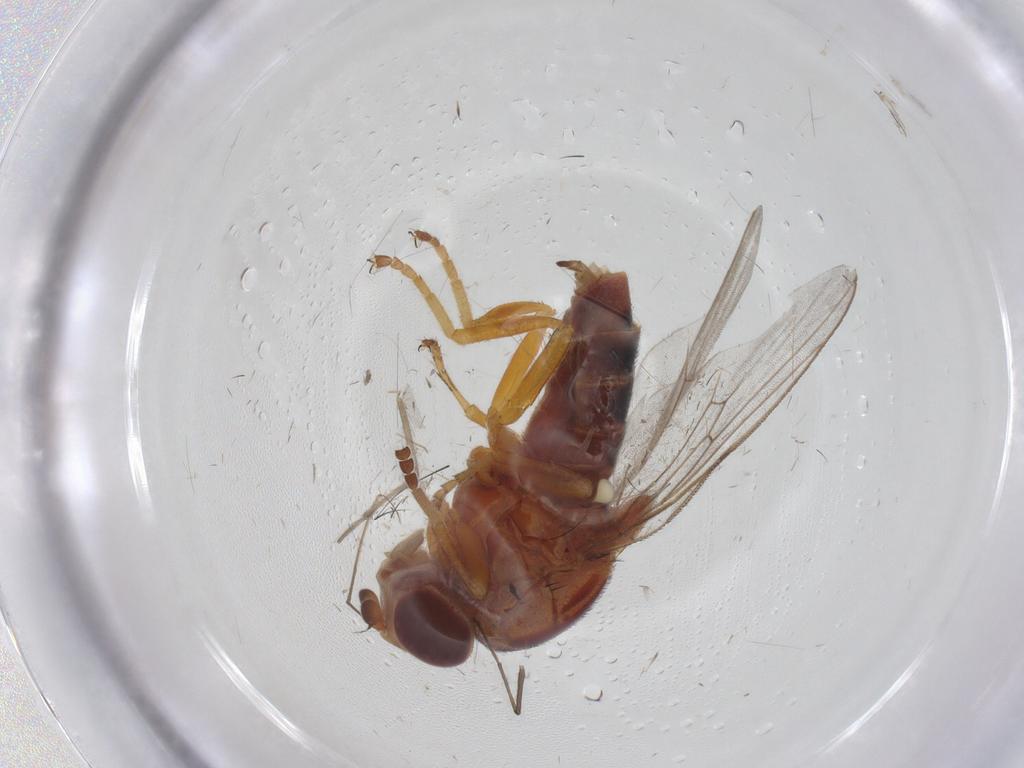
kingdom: Animalia
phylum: Arthropoda
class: Insecta
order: Diptera
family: Chloropidae
